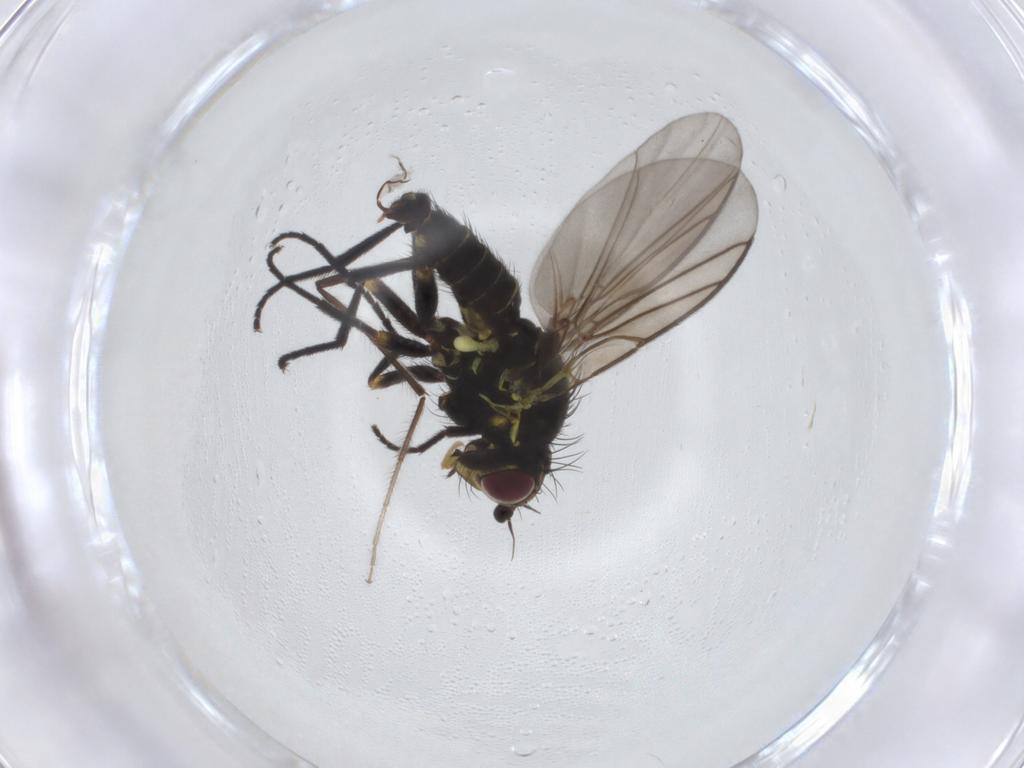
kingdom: Animalia
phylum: Arthropoda
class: Insecta
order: Diptera
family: Agromyzidae
